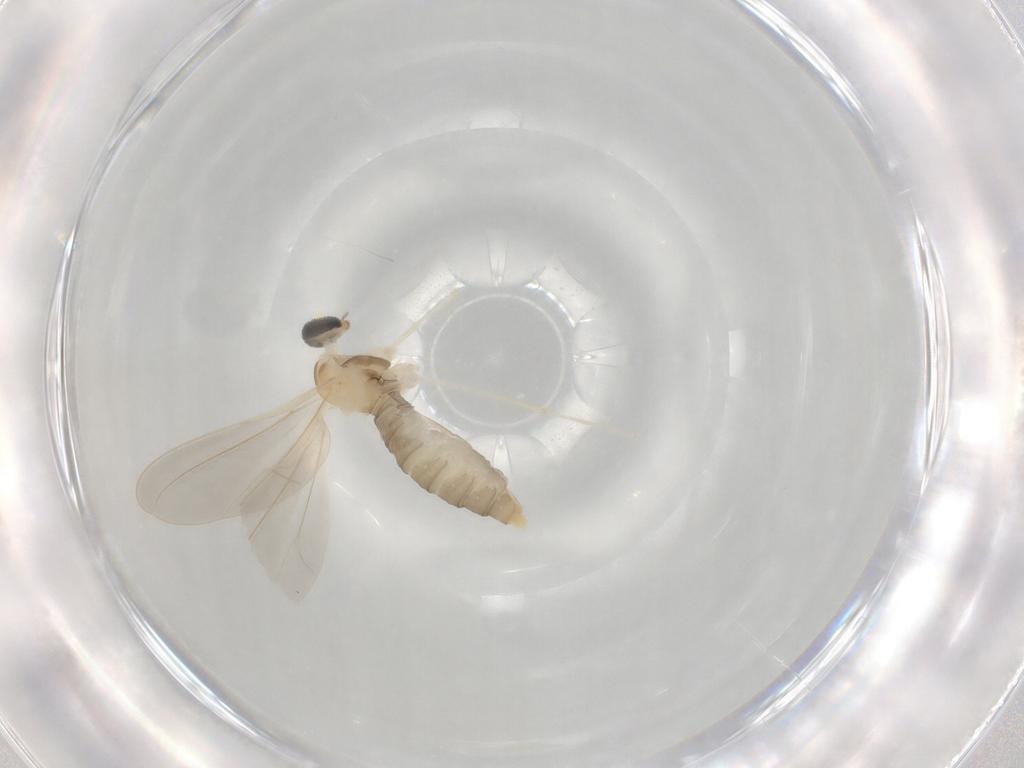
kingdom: Animalia
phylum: Arthropoda
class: Insecta
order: Diptera
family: Cecidomyiidae
